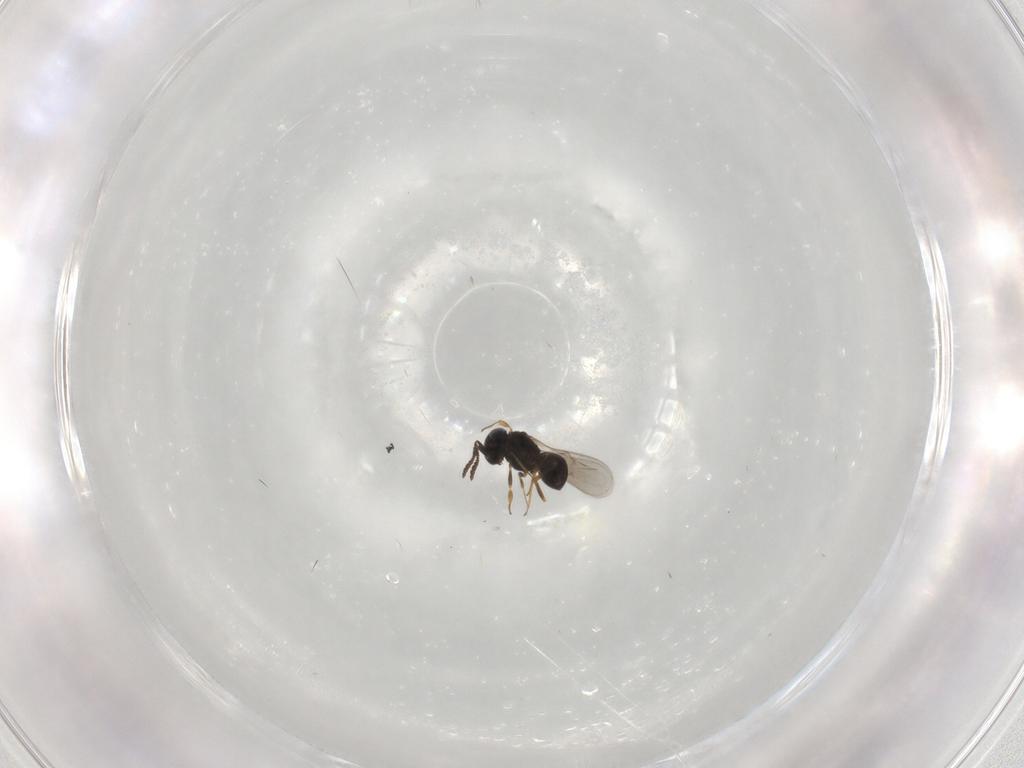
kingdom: Animalia
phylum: Arthropoda
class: Insecta
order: Hymenoptera
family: Scelionidae
